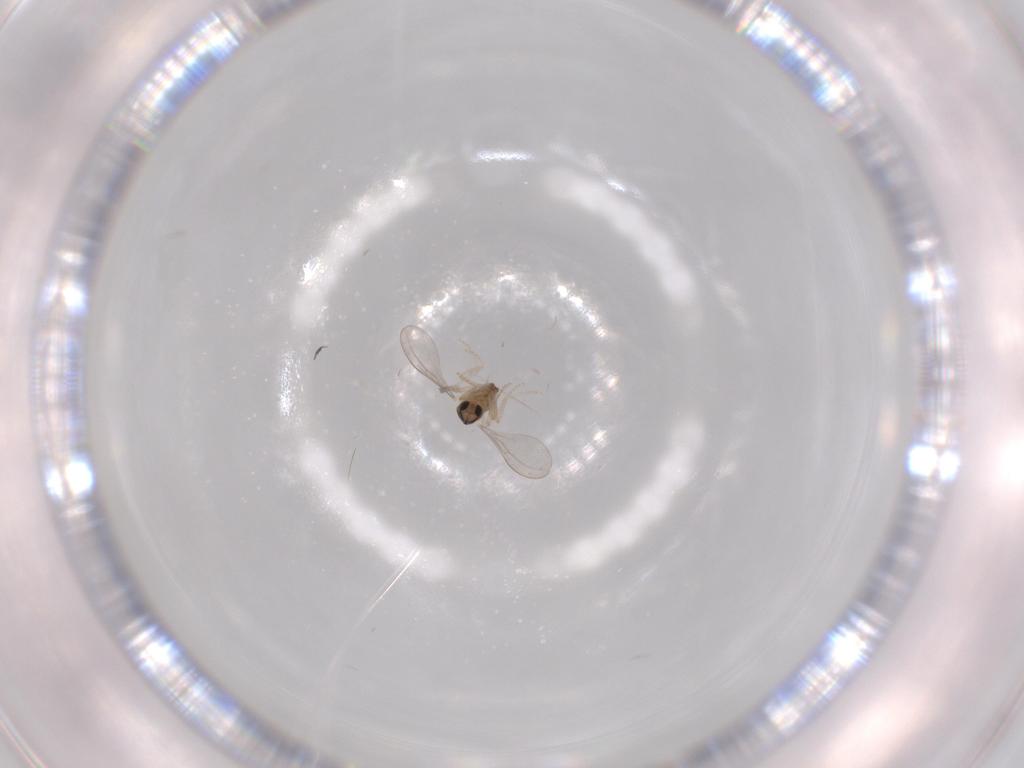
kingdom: Animalia
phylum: Arthropoda
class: Insecta
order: Diptera
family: Cecidomyiidae
